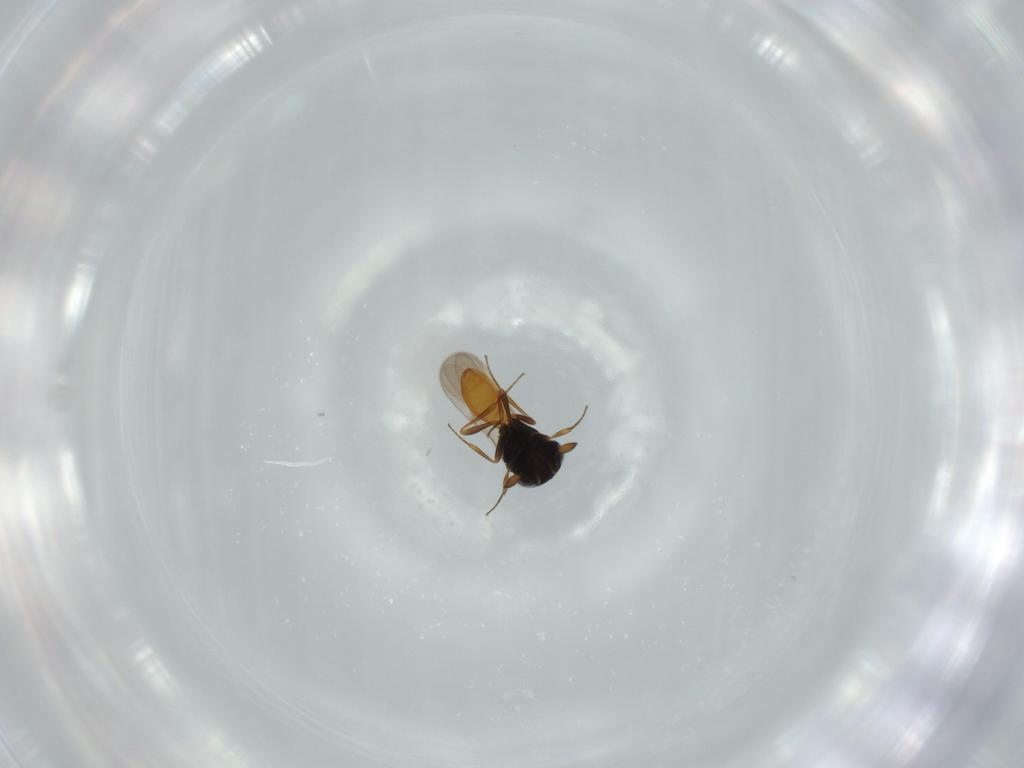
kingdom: Animalia
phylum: Arthropoda
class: Insecta
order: Hymenoptera
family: Scelionidae
